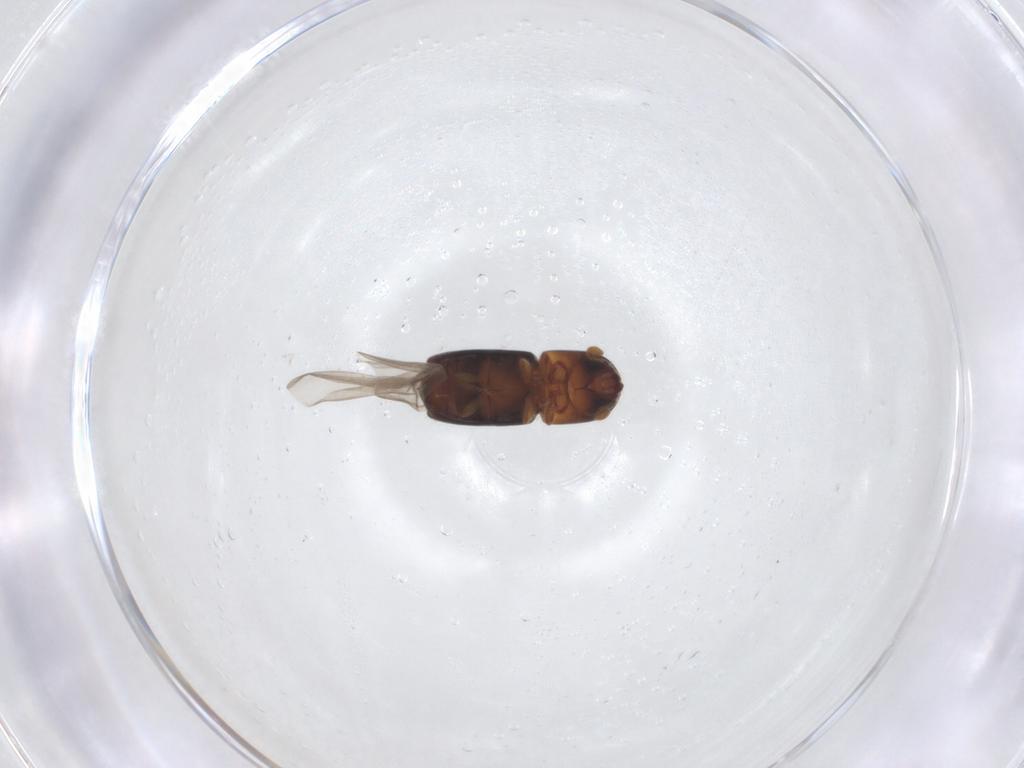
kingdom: Animalia
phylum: Arthropoda
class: Insecta
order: Coleoptera
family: Curculionidae
